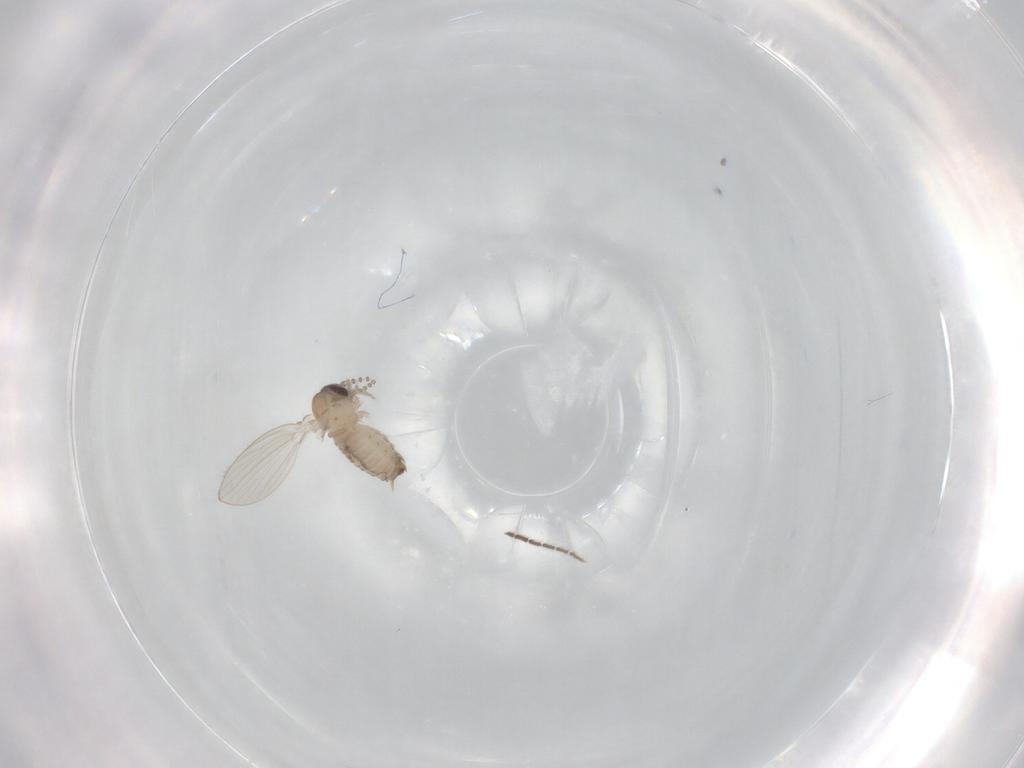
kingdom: Animalia
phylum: Arthropoda
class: Insecta
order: Diptera
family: Psychodidae
